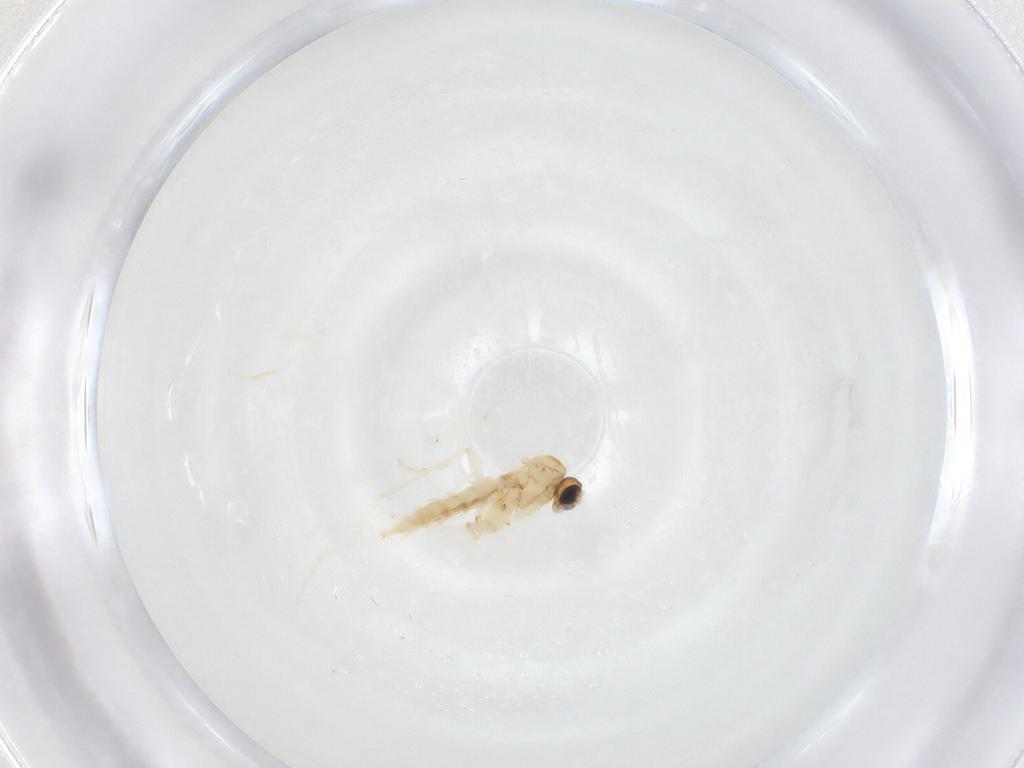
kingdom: Animalia
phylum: Arthropoda
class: Insecta
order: Diptera
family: Sciaridae
